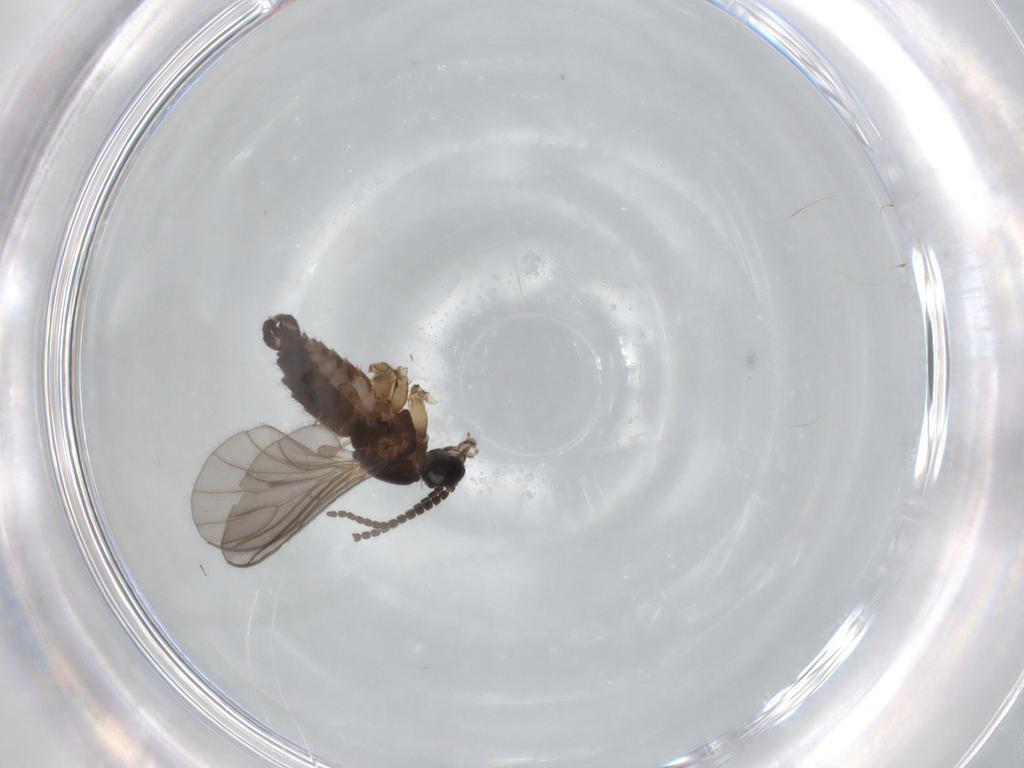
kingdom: Animalia
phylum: Arthropoda
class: Insecta
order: Diptera
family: Sciaridae
